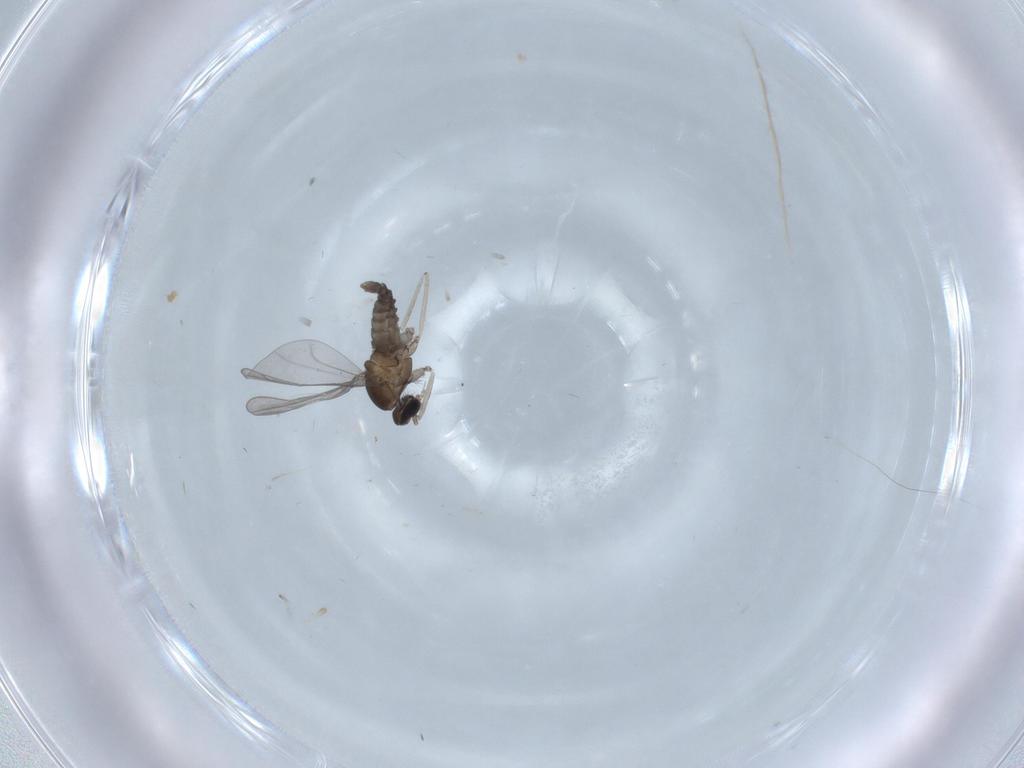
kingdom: Animalia
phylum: Arthropoda
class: Insecta
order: Diptera
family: Cecidomyiidae
